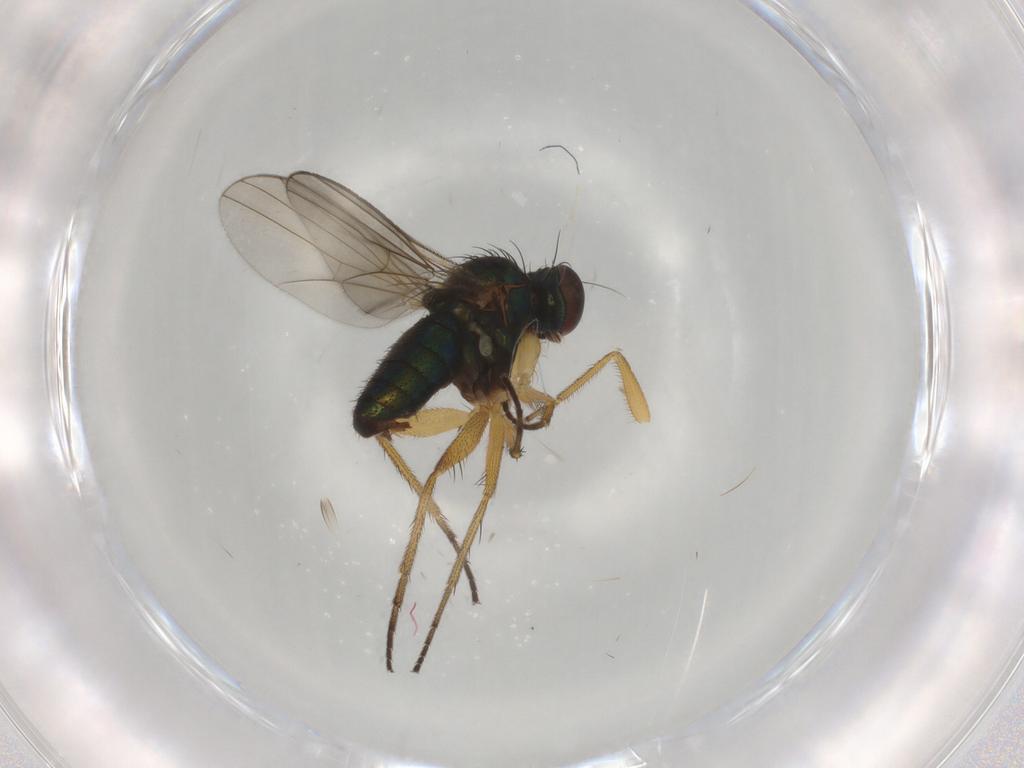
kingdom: Animalia
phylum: Arthropoda
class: Insecta
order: Diptera
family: Dolichopodidae
